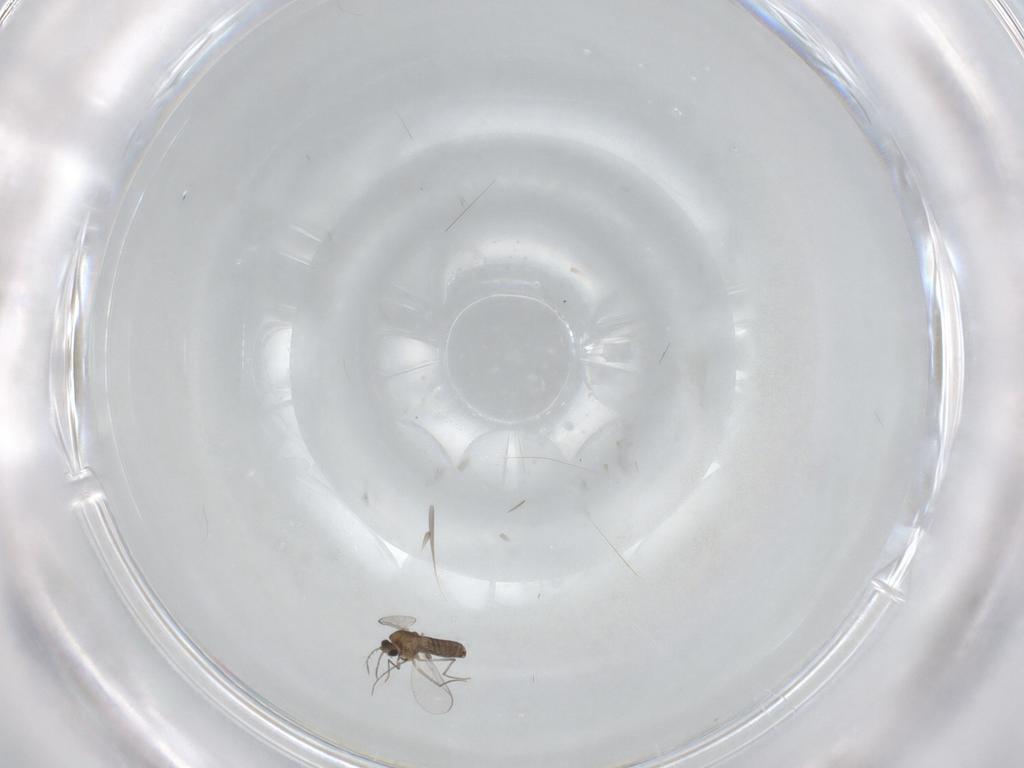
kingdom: Animalia
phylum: Arthropoda
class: Insecta
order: Diptera
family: Chironomidae
